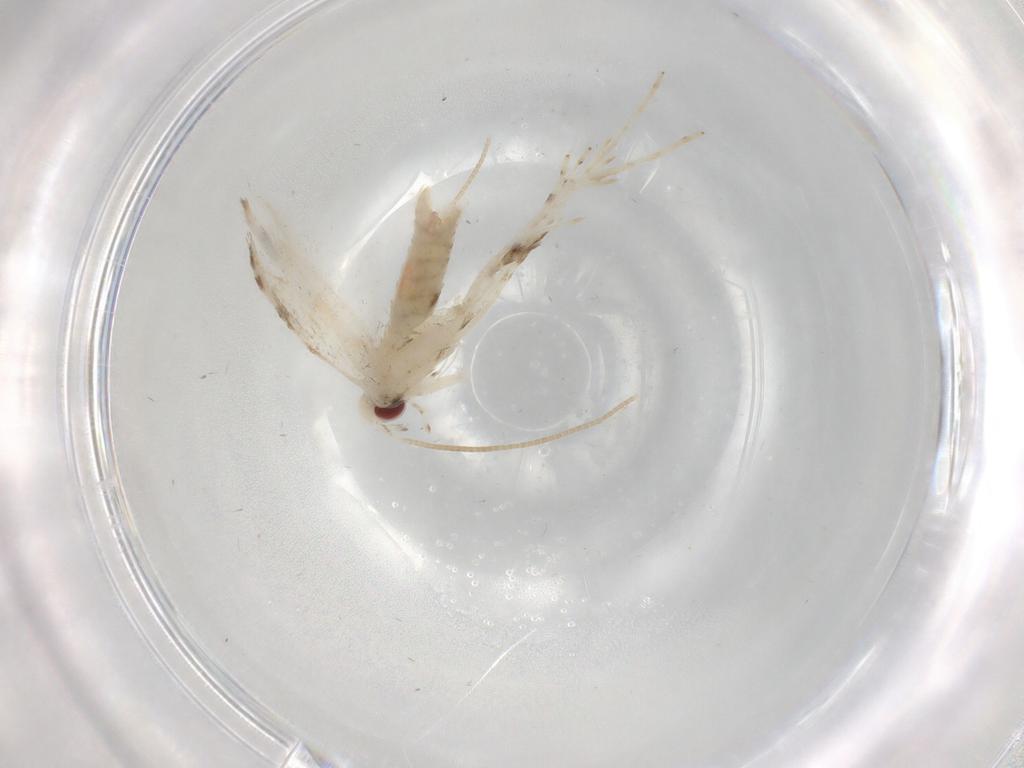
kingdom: Animalia
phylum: Arthropoda
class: Insecta
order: Lepidoptera
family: Gracillariidae
